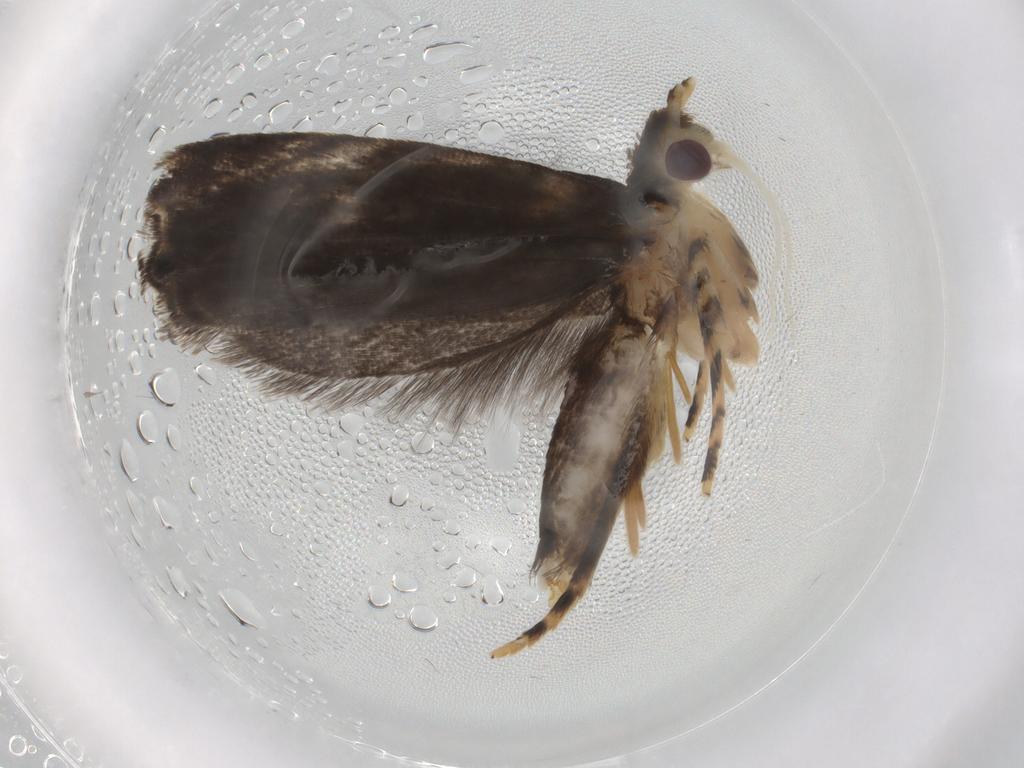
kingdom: Animalia
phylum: Arthropoda
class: Insecta
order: Lepidoptera
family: Gelechiidae
